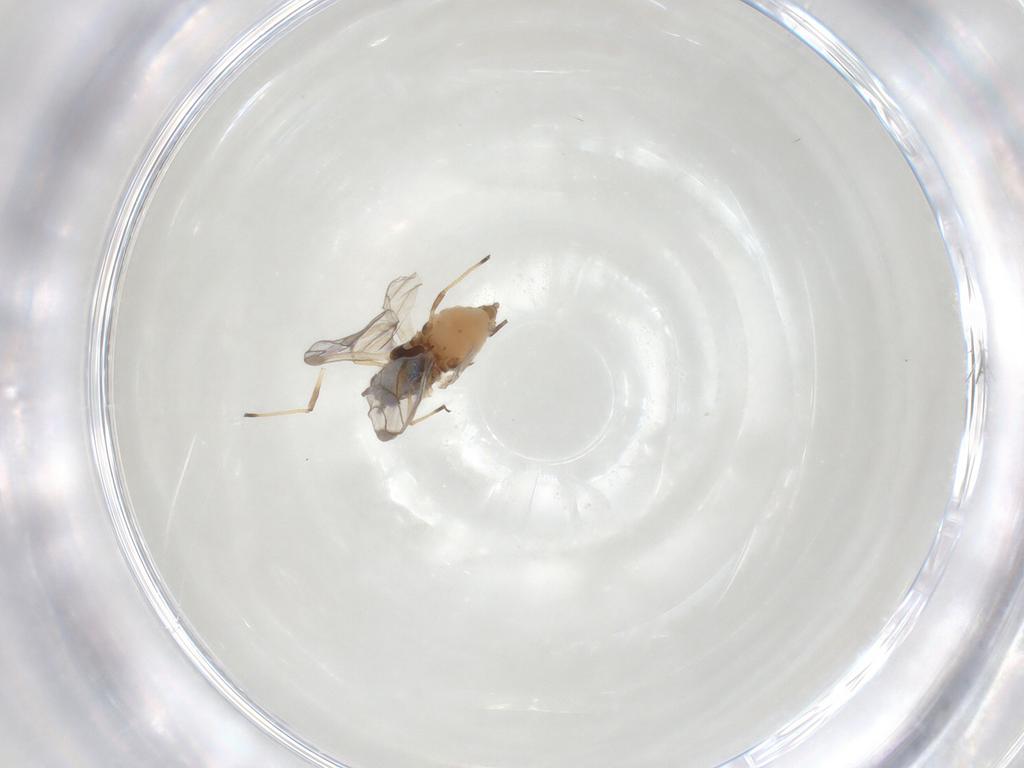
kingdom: Animalia
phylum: Arthropoda
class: Insecta
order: Hemiptera
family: Aphididae
